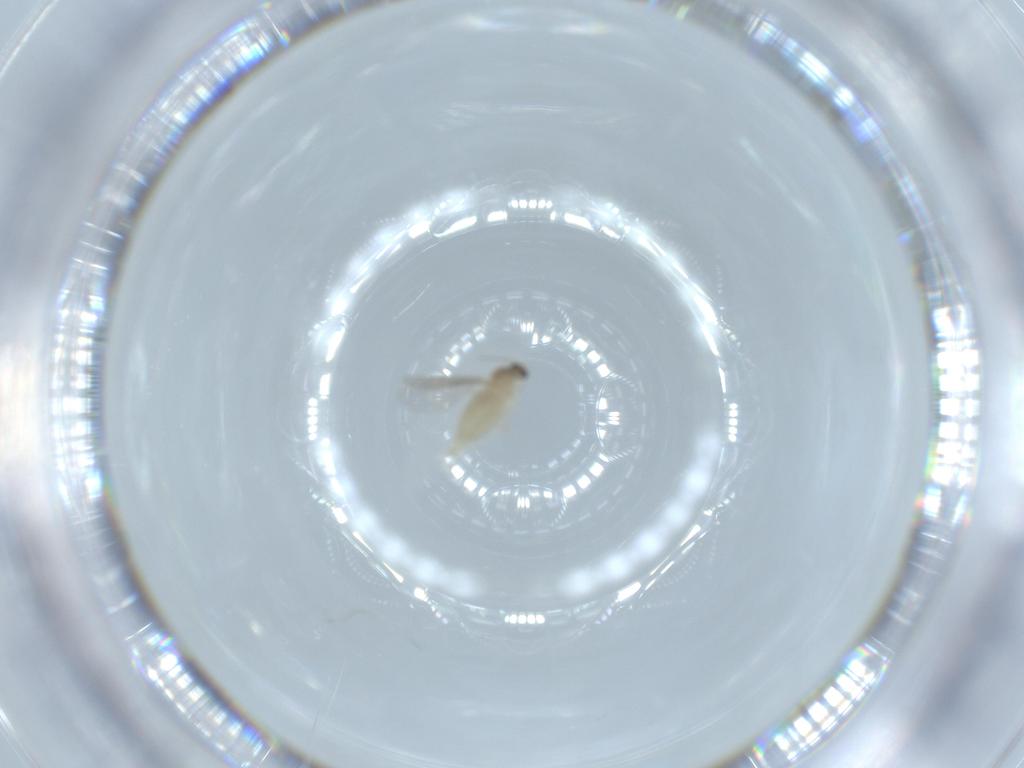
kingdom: Animalia
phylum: Arthropoda
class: Insecta
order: Diptera
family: Cecidomyiidae
